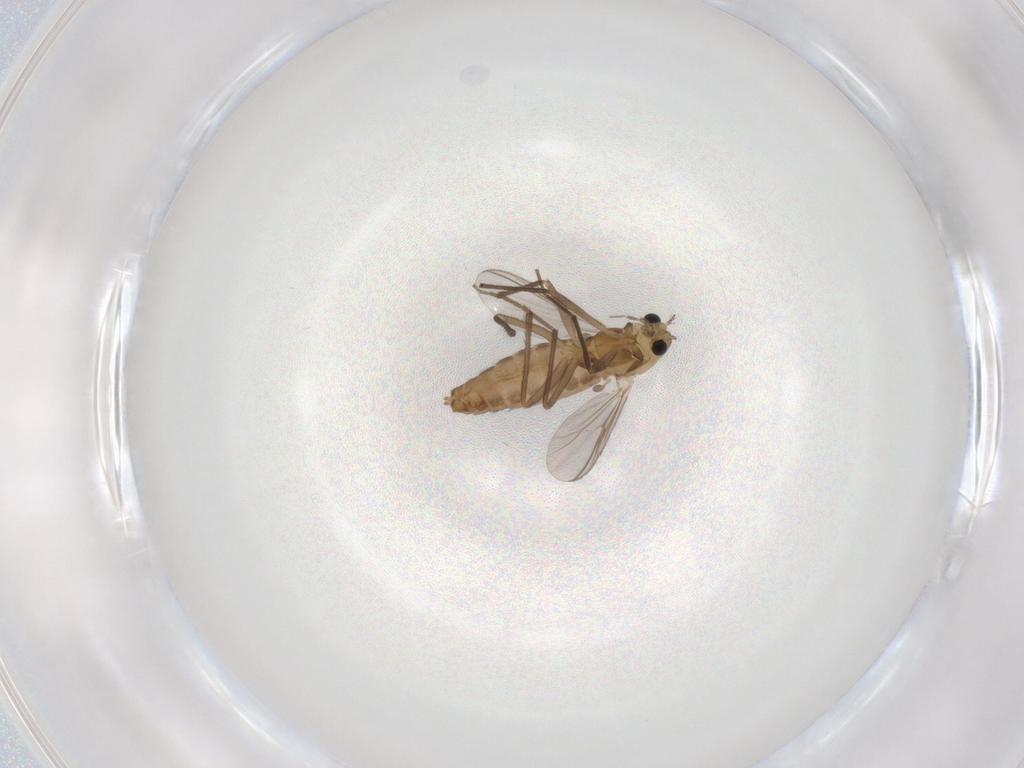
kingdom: Animalia
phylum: Arthropoda
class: Insecta
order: Diptera
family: Chironomidae
